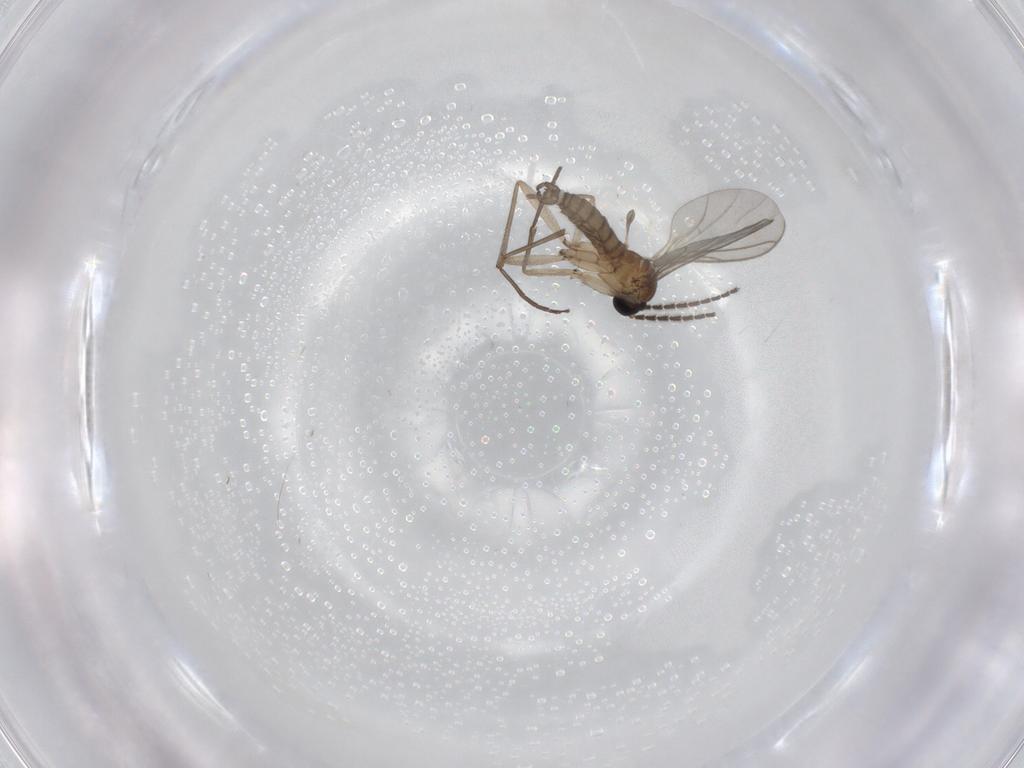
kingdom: Animalia
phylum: Arthropoda
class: Insecta
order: Diptera
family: Sciaridae
